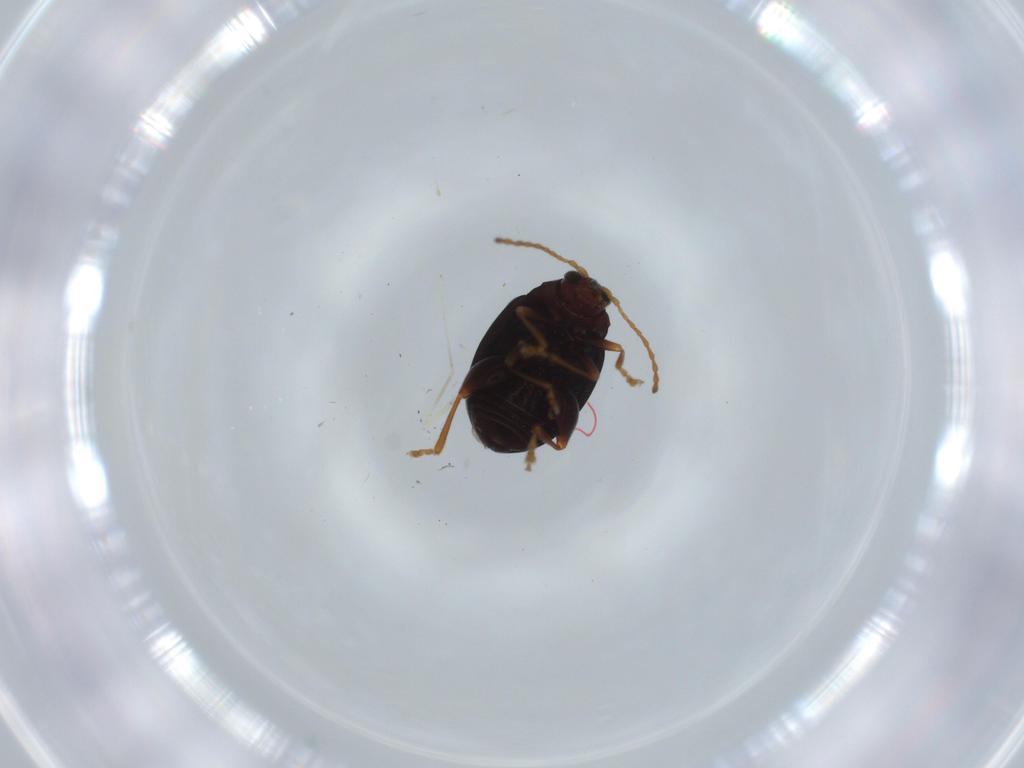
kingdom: Animalia
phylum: Arthropoda
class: Insecta
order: Coleoptera
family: Chrysomelidae
